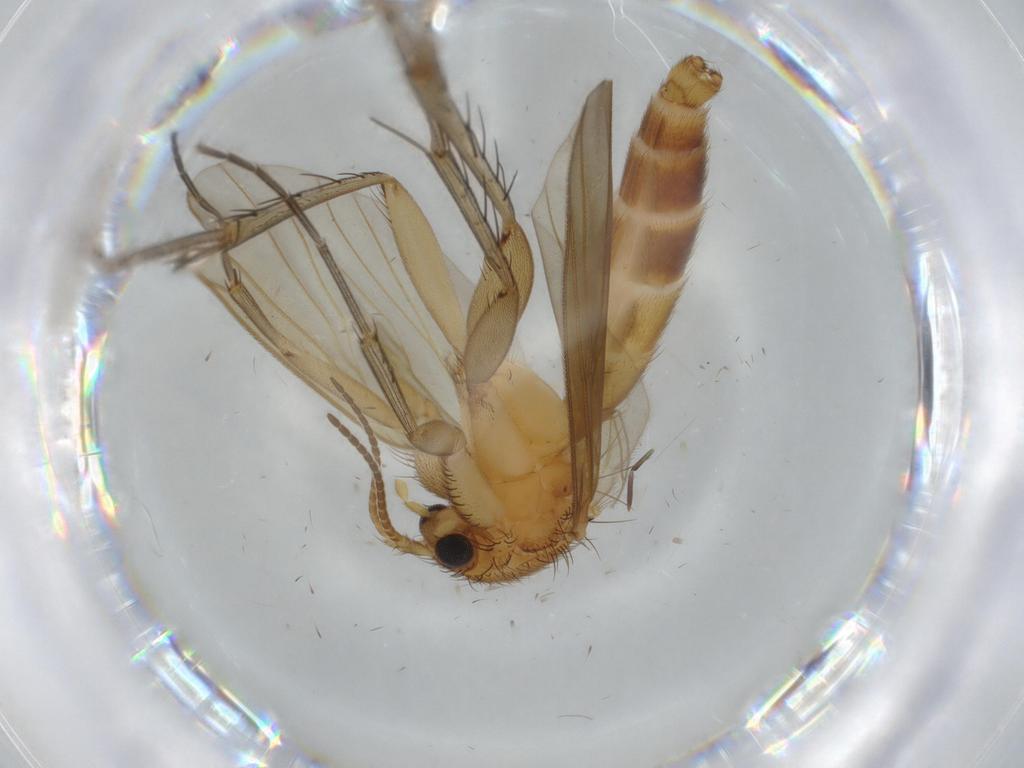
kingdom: Animalia
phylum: Arthropoda
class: Insecta
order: Diptera
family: Mycetophilidae
